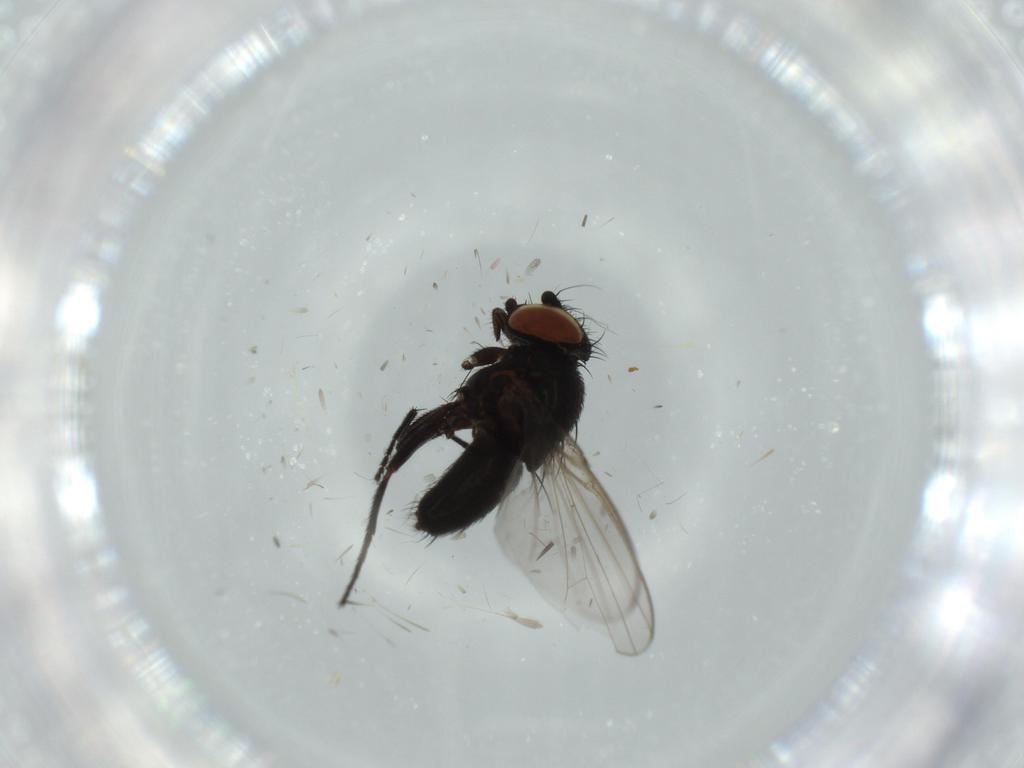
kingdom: Animalia
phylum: Arthropoda
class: Insecta
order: Diptera
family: Milichiidae
